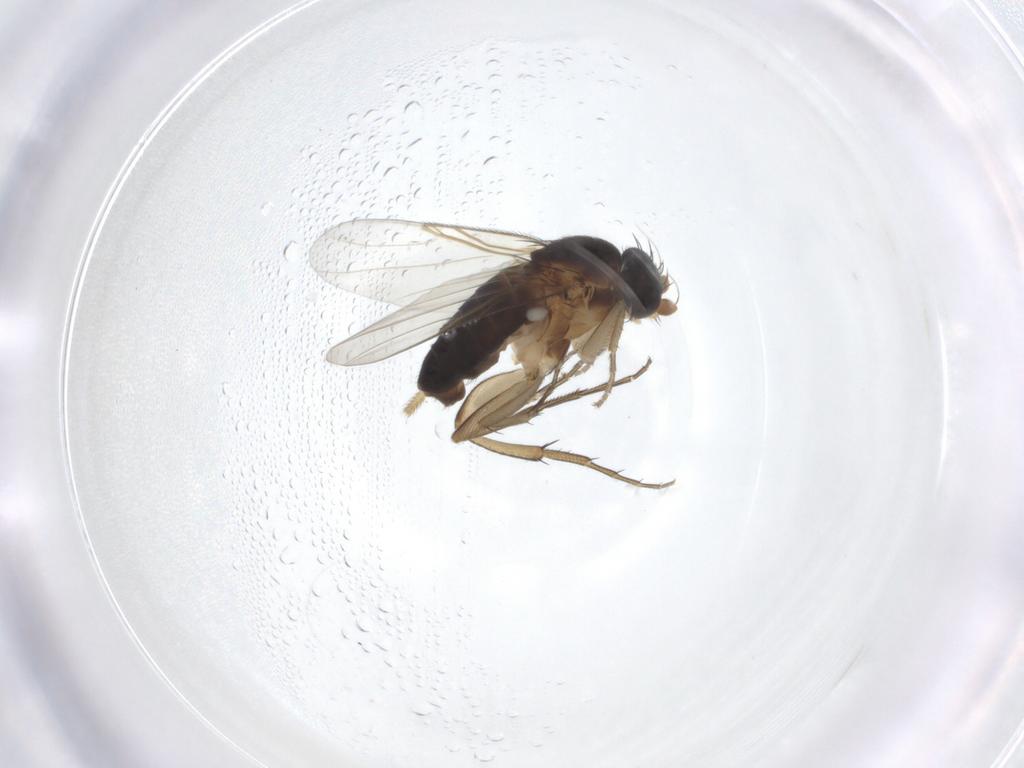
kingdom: Animalia
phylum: Arthropoda
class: Insecta
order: Diptera
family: Phoridae
